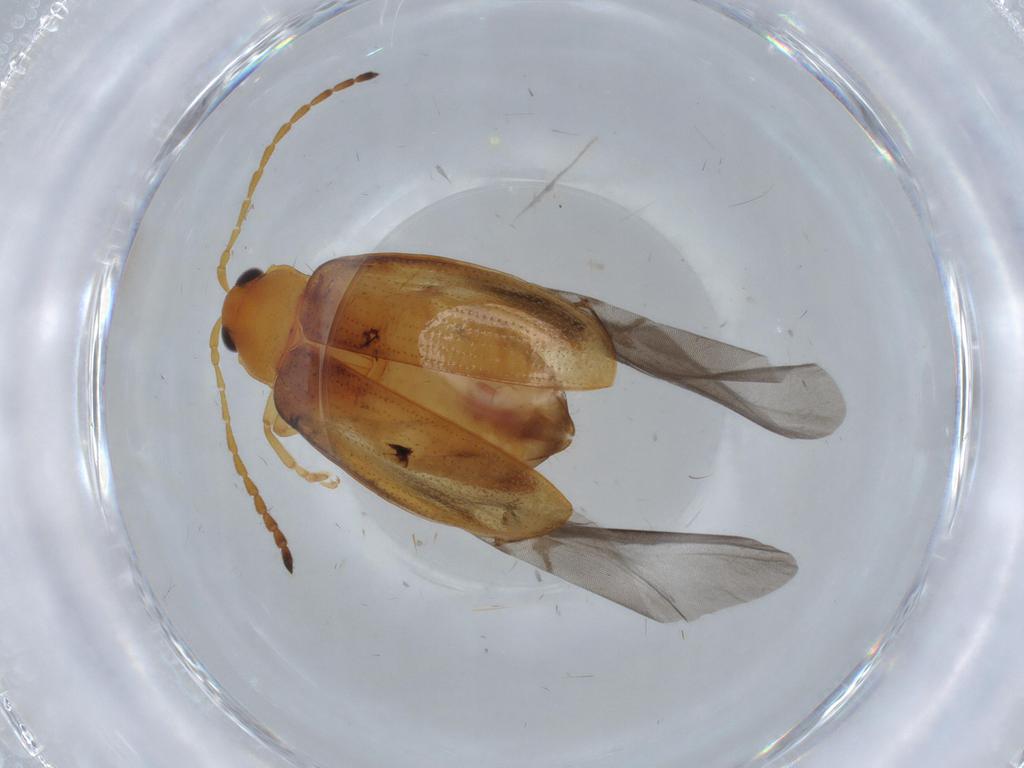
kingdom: Animalia
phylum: Arthropoda
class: Insecta
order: Coleoptera
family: Chrysomelidae
